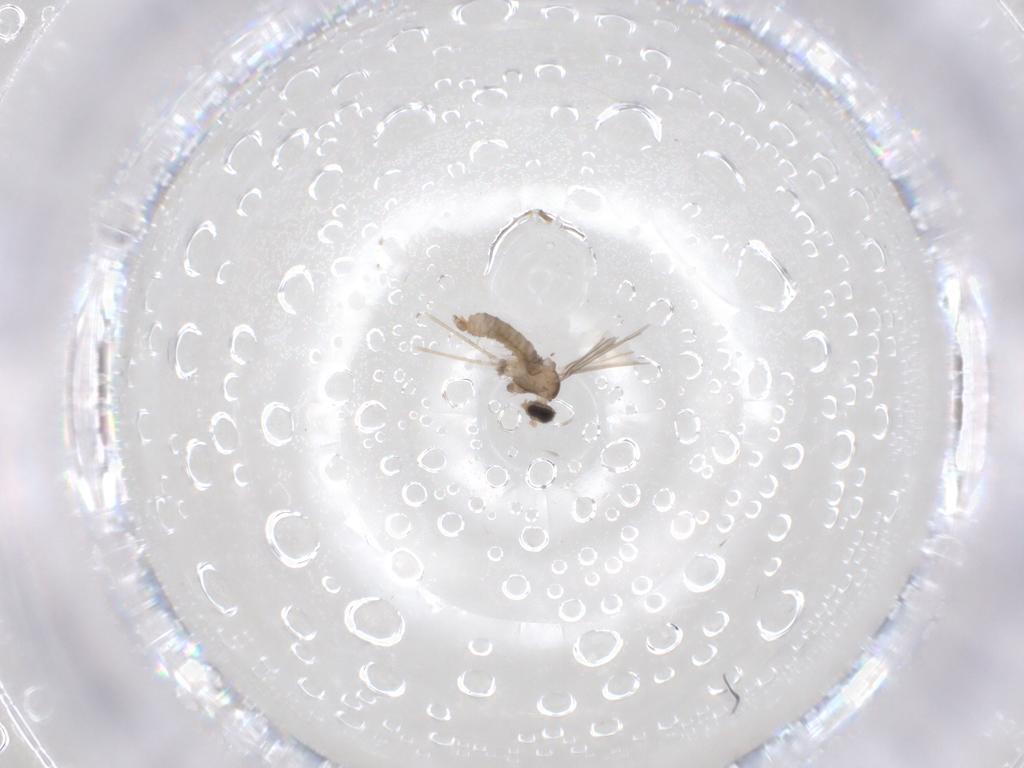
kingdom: Animalia
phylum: Arthropoda
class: Insecta
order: Diptera
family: Cecidomyiidae
